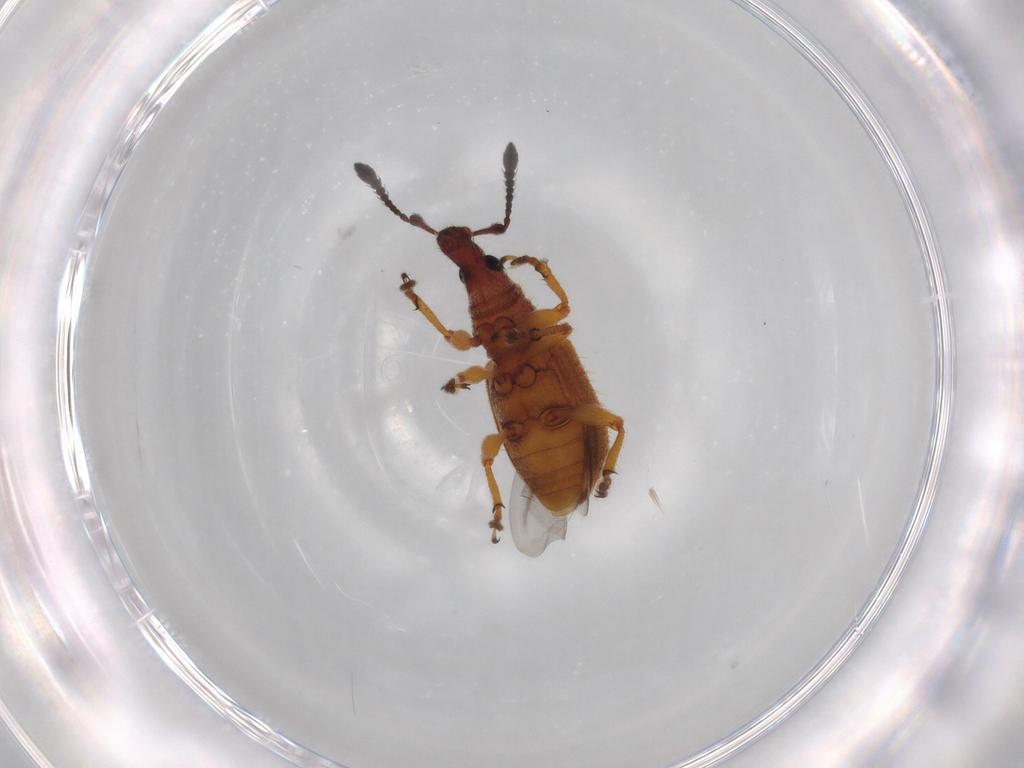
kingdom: Animalia
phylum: Arthropoda
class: Insecta
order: Coleoptera
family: Curculionidae
